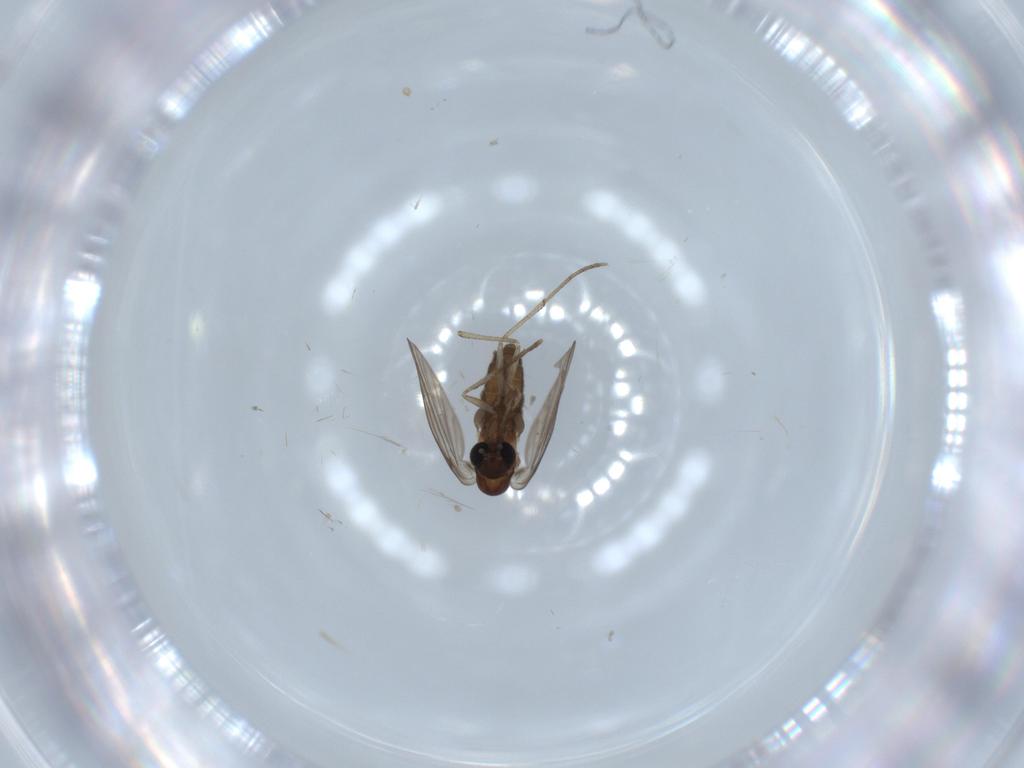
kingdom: Animalia
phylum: Arthropoda
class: Insecta
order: Diptera
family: Psychodidae
